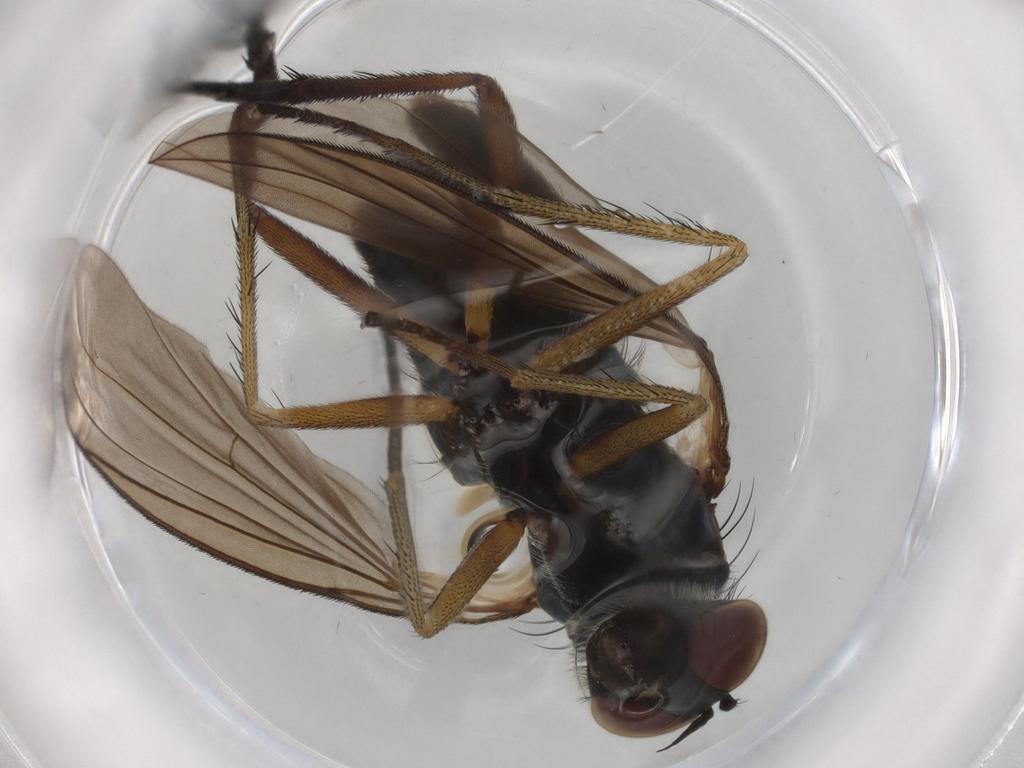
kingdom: Animalia
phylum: Arthropoda
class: Insecta
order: Diptera
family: Dolichopodidae
